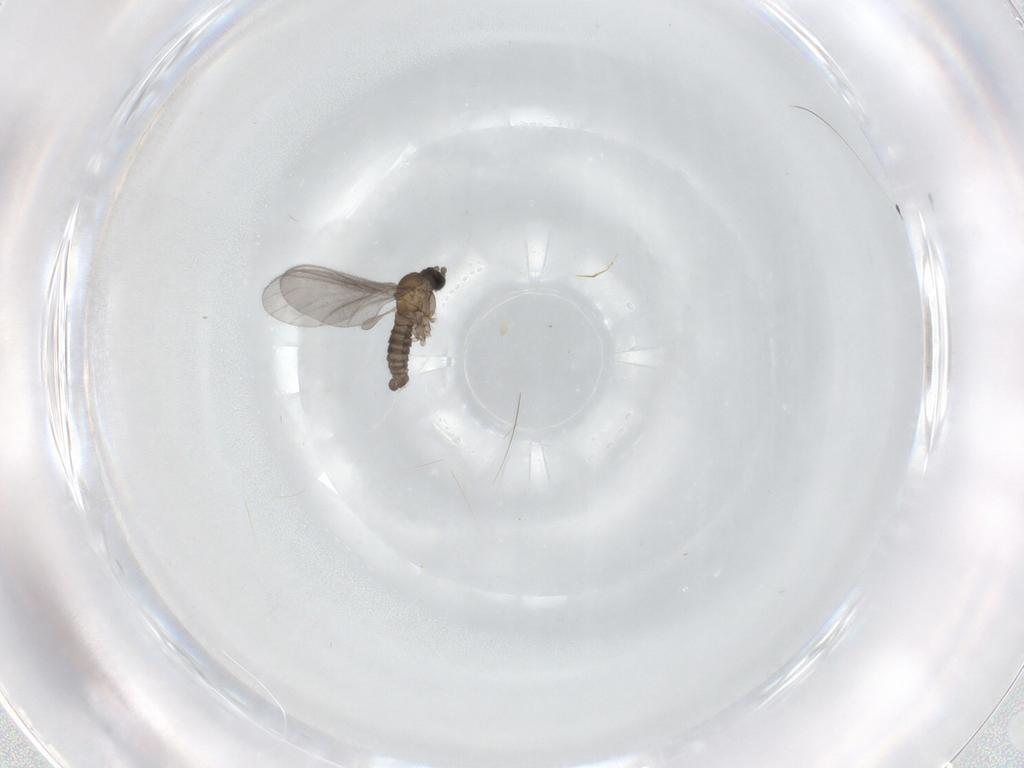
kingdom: Animalia
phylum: Arthropoda
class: Insecta
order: Diptera
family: Sciaridae
